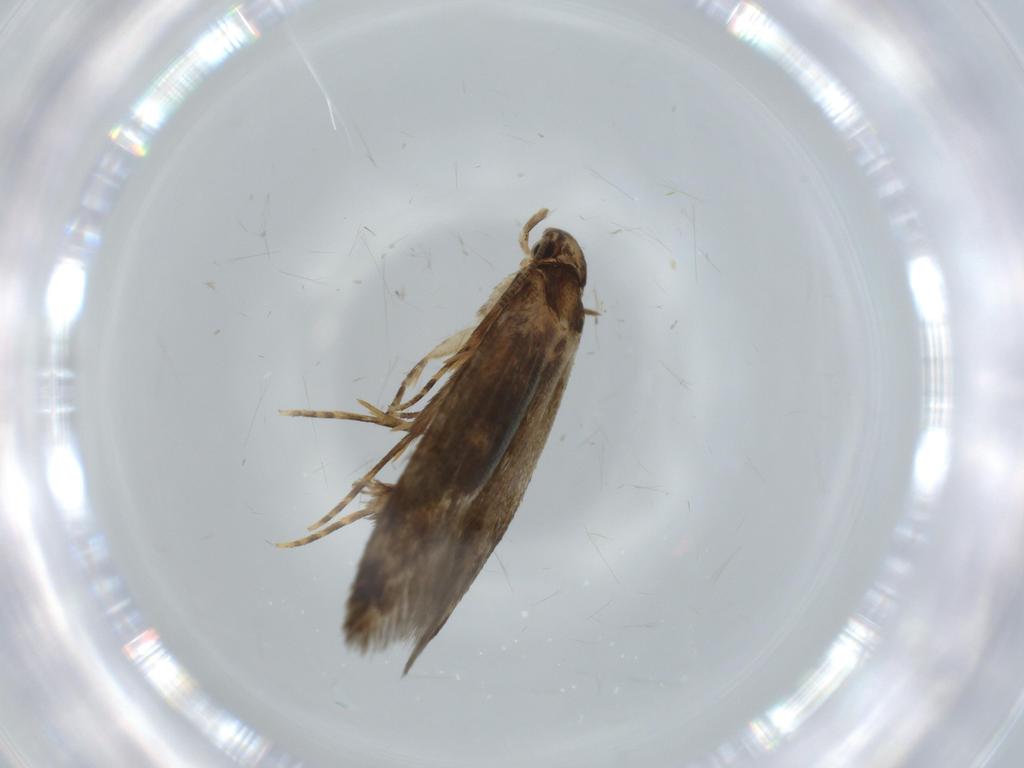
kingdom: Animalia
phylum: Arthropoda
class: Insecta
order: Lepidoptera
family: Tineidae
